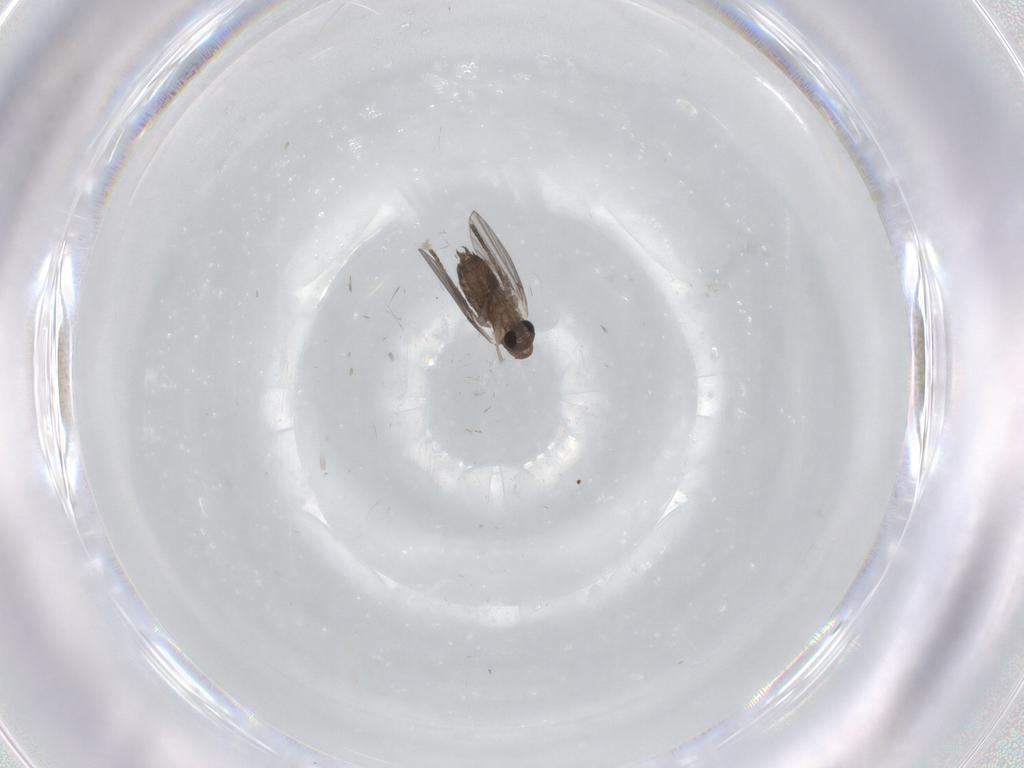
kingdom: Animalia
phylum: Arthropoda
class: Insecta
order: Diptera
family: Chironomidae
